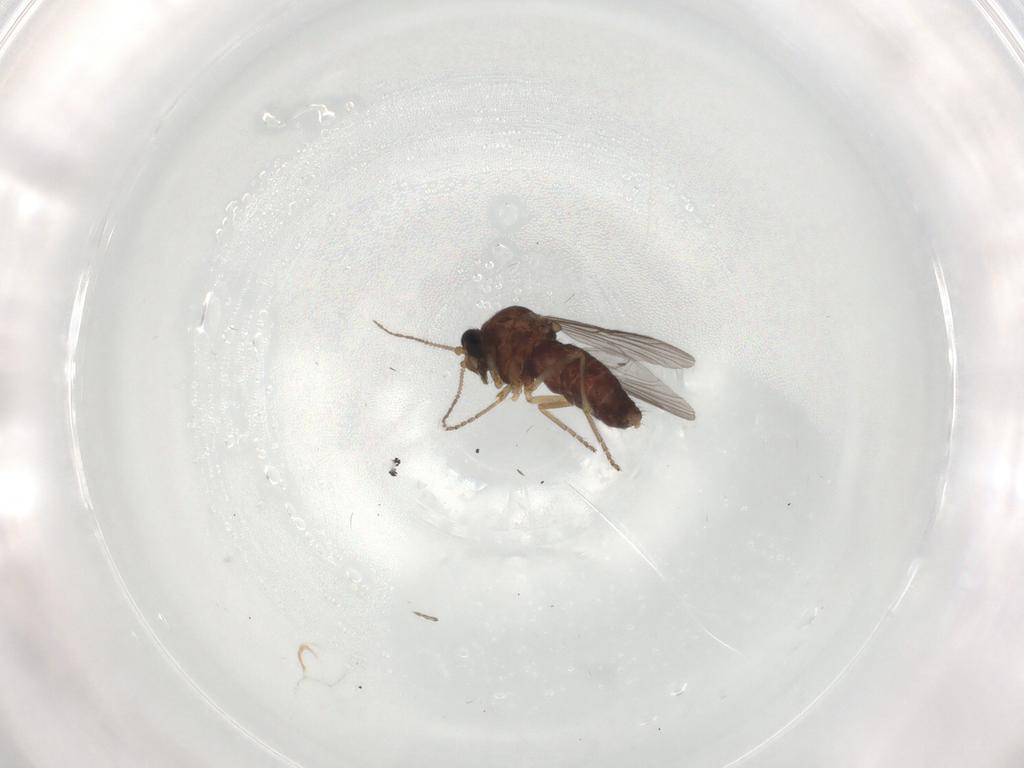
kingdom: Animalia
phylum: Arthropoda
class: Insecta
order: Diptera
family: Ceratopogonidae
